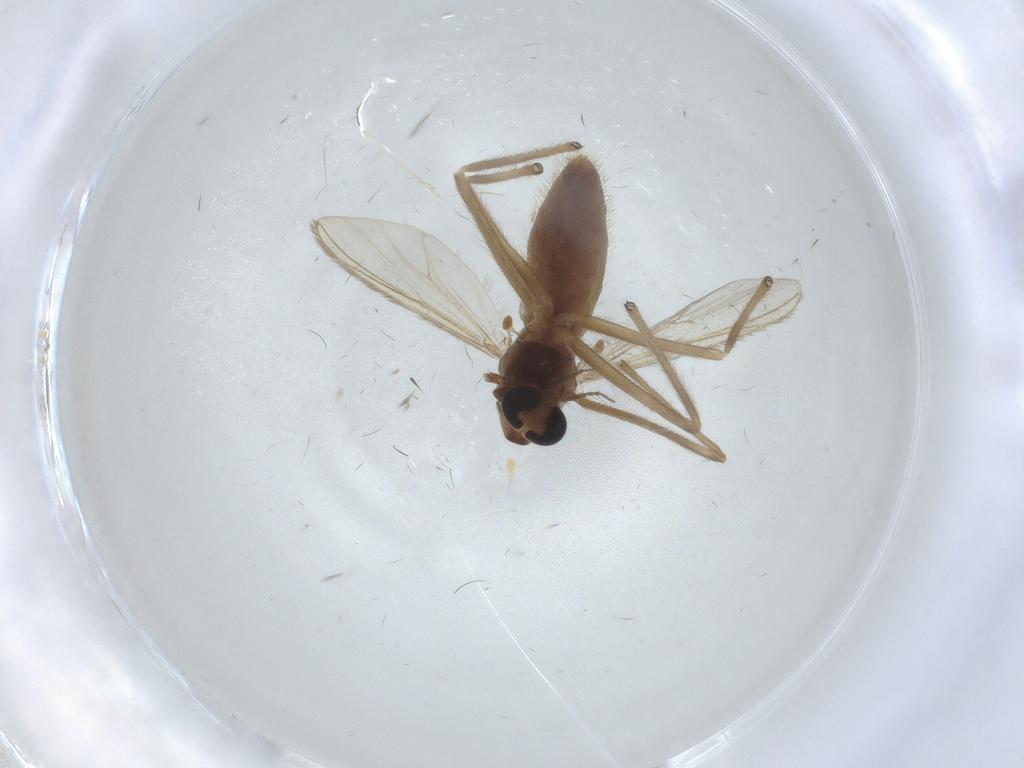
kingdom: Animalia
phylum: Arthropoda
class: Insecta
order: Diptera
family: Chironomidae
